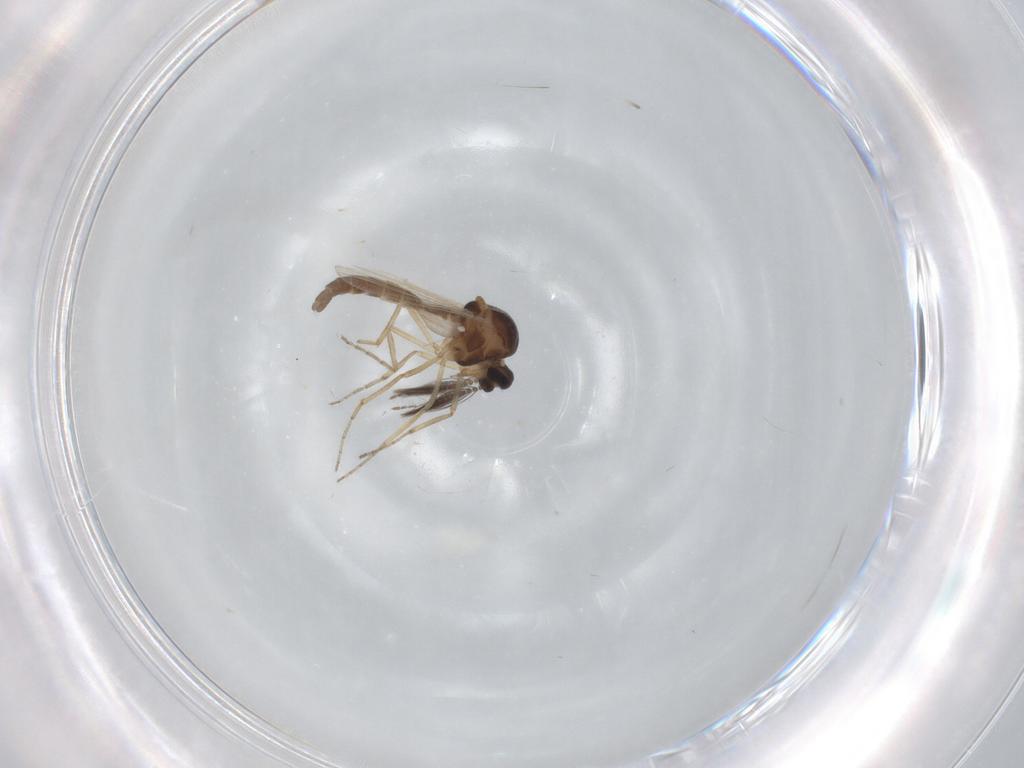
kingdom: Animalia
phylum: Arthropoda
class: Insecta
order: Diptera
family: Ceratopogonidae
